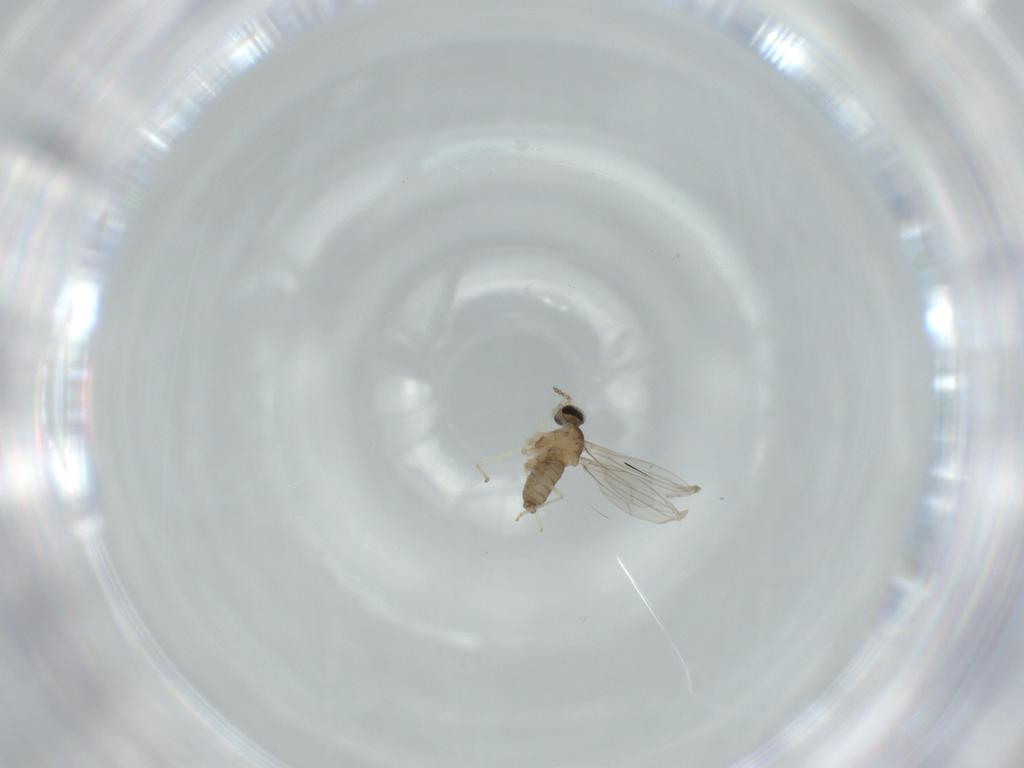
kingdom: Animalia
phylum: Arthropoda
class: Insecta
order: Diptera
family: Cecidomyiidae
